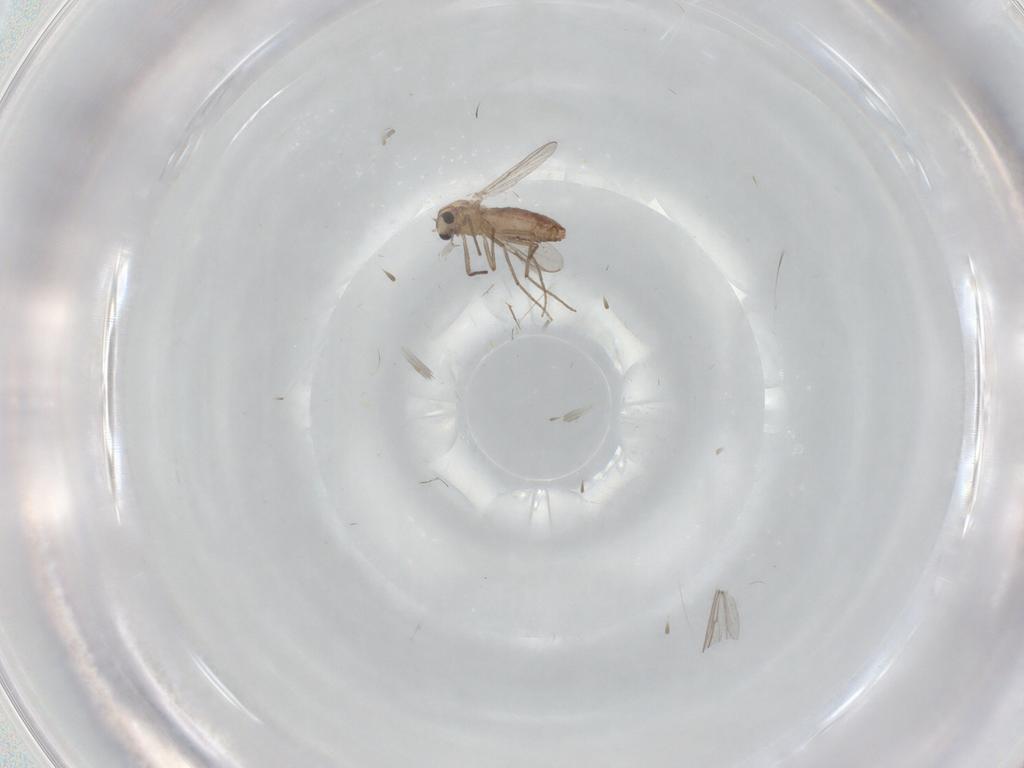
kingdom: Animalia
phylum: Arthropoda
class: Insecta
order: Diptera
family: Chironomidae
